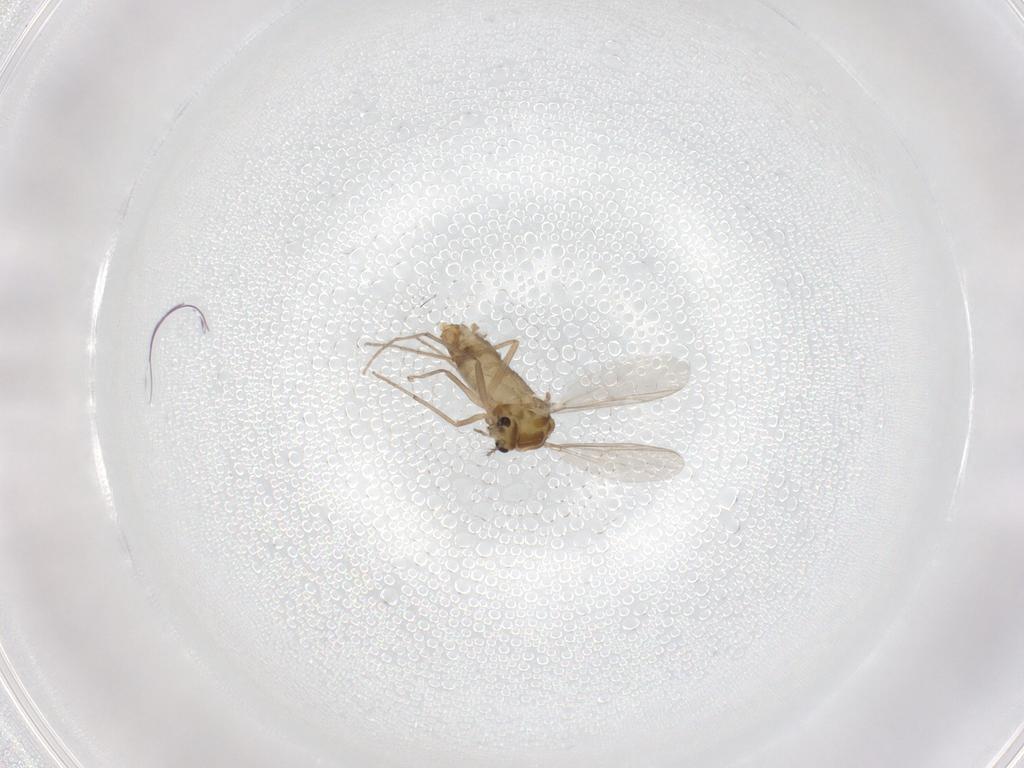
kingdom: Animalia
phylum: Arthropoda
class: Insecta
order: Diptera
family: Chironomidae
